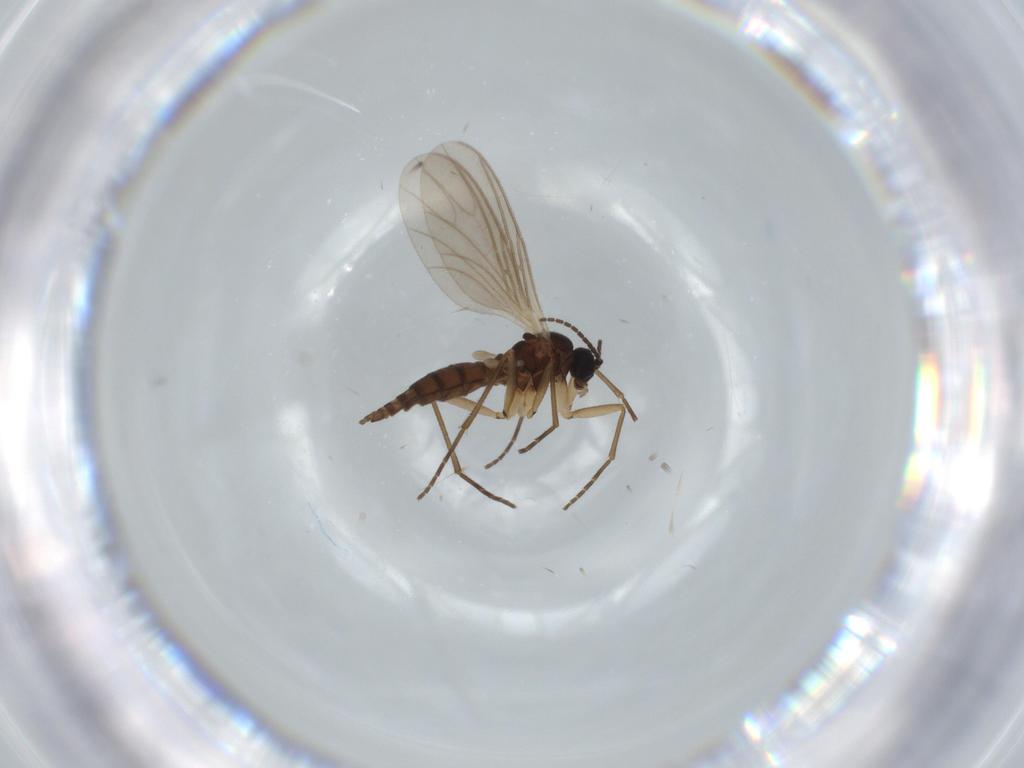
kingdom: Animalia
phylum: Arthropoda
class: Insecta
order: Diptera
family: Sciaridae
